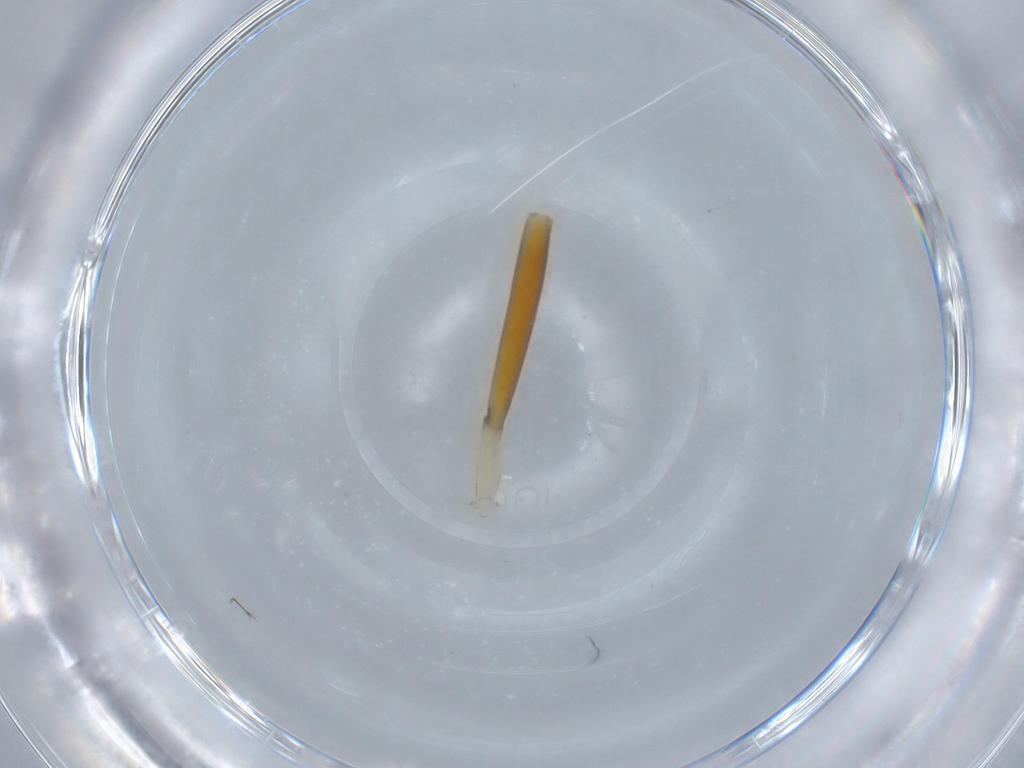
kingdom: Animalia
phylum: Arthropoda
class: Insecta
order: Hymenoptera
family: Ichneumonidae
